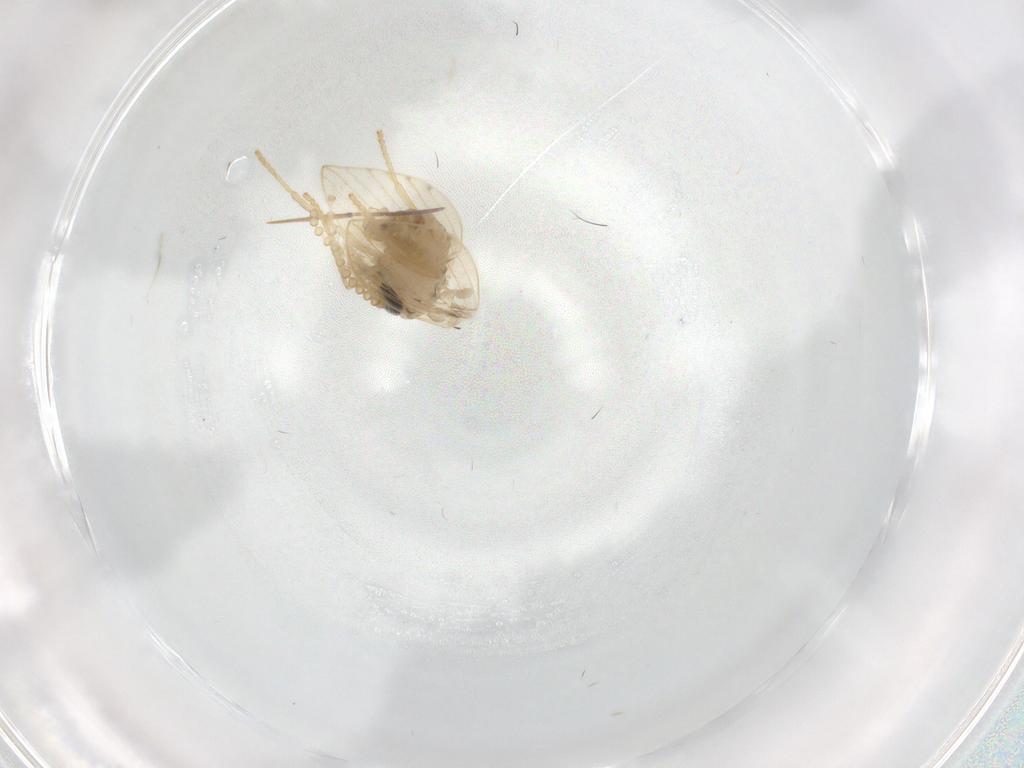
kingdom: Animalia
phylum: Arthropoda
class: Insecta
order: Diptera
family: Psychodidae
